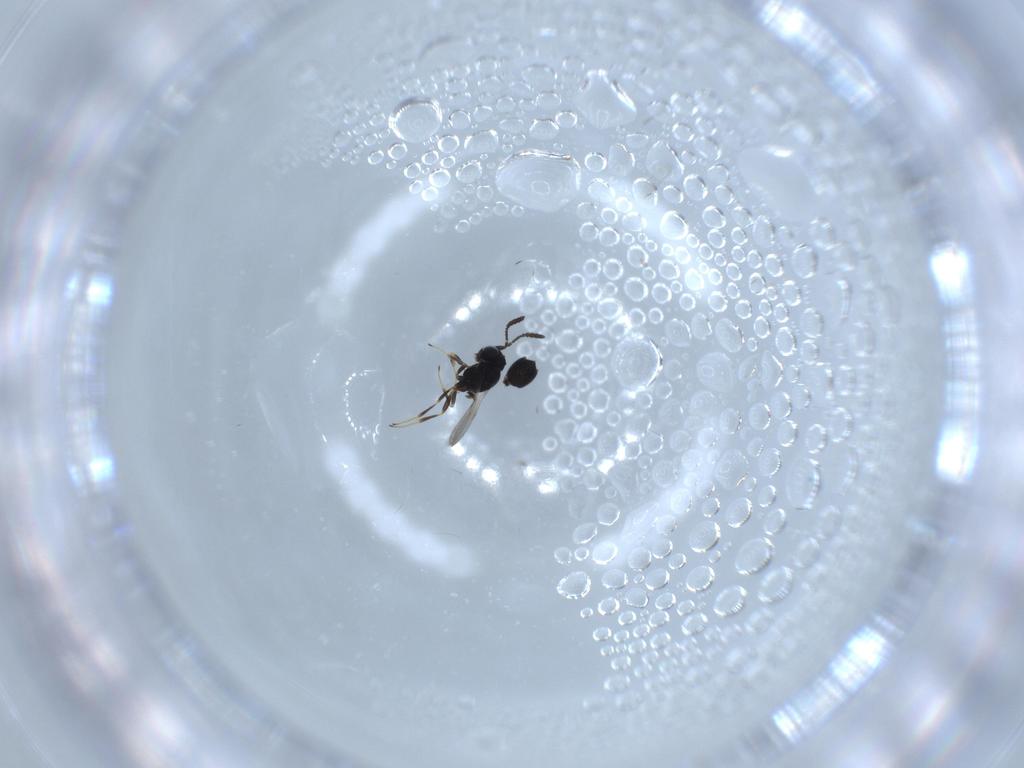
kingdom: Animalia
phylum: Arthropoda
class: Insecta
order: Hymenoptera
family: Scelionidae
